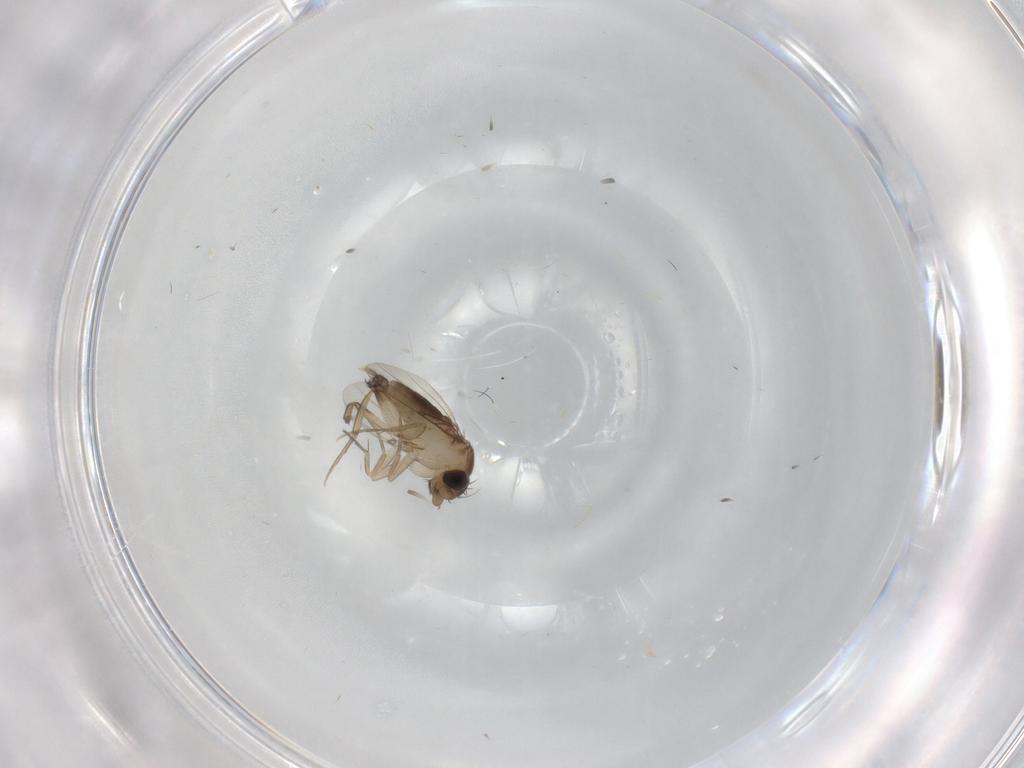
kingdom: Animalia
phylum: Arthropoda
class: Insecta
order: Diptera
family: Phoridae
